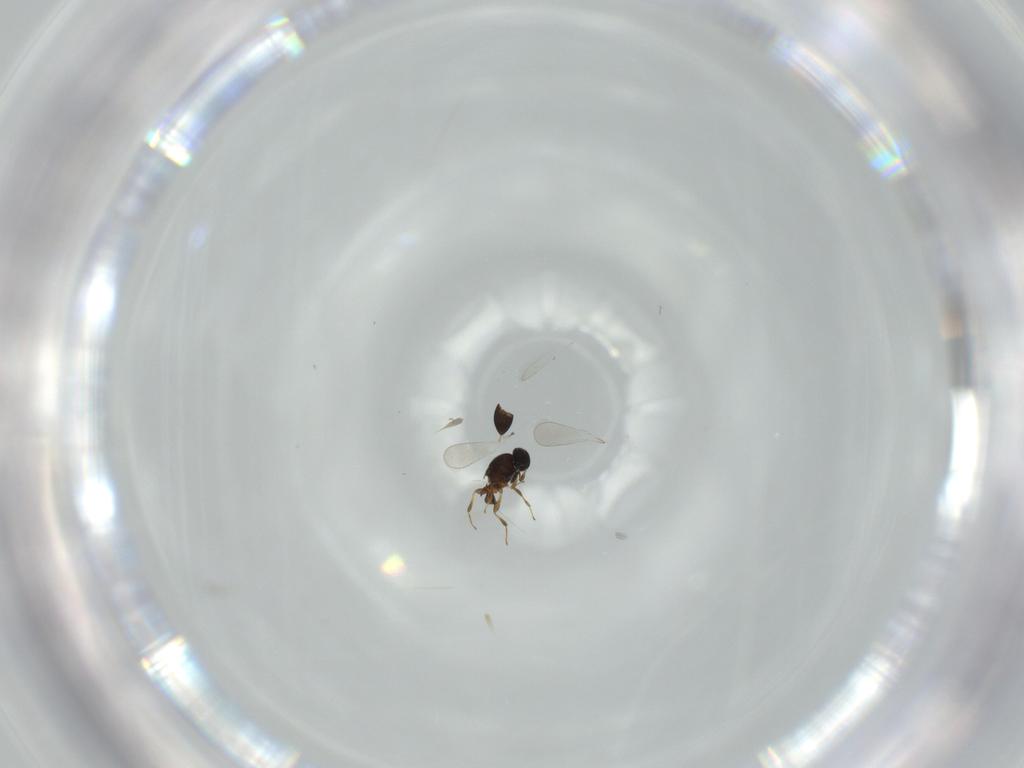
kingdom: Animalia
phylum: Arthropoda
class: Insecta
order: Hymenoptera
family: Platygastridae
